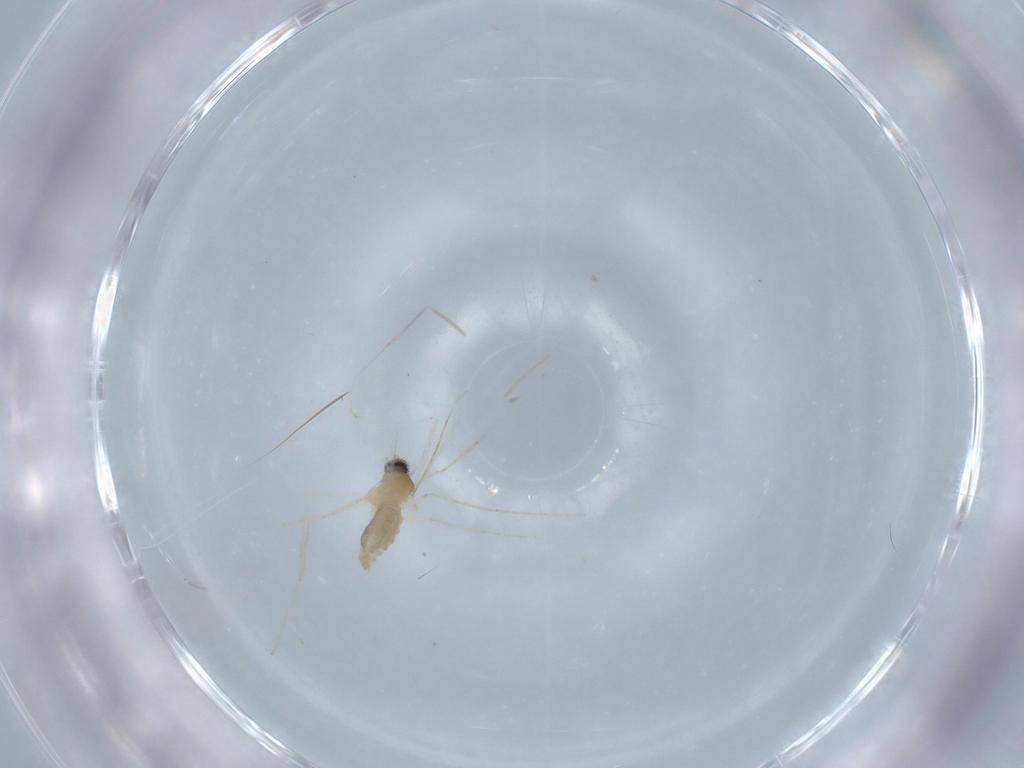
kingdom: Animalia
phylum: Arthropoda
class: Insecta
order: Diptera
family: Cecidomyiidae
